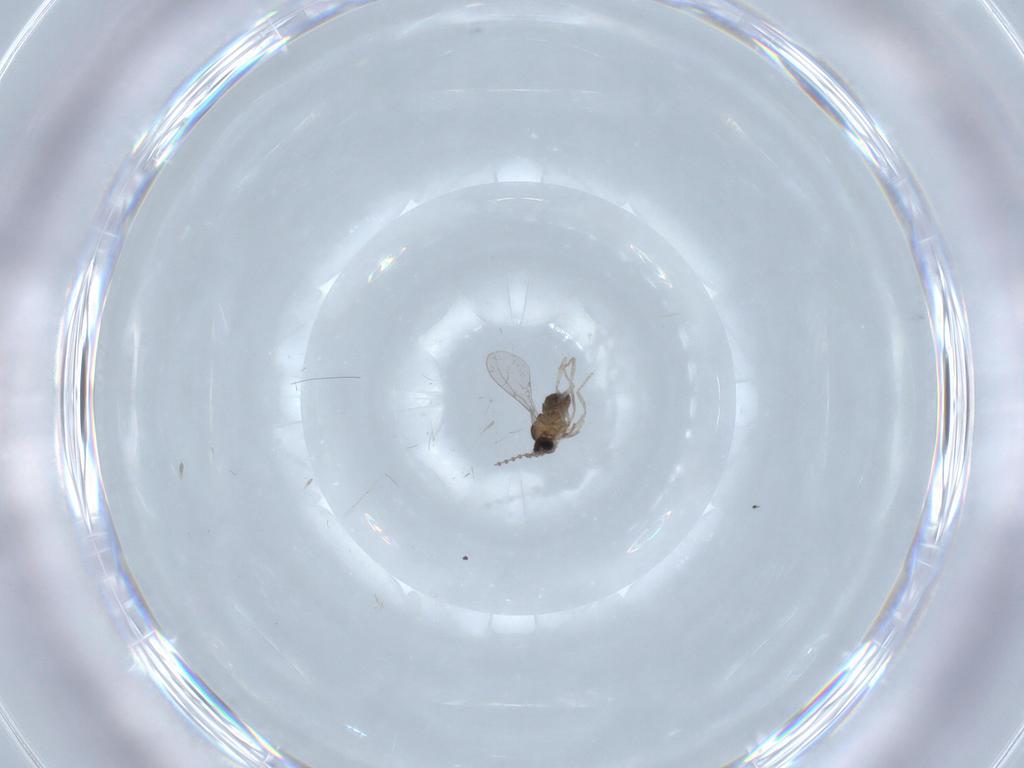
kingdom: Animalia
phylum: Arthropoda
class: Insecta
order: Diptera
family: Cecidomyiidae
